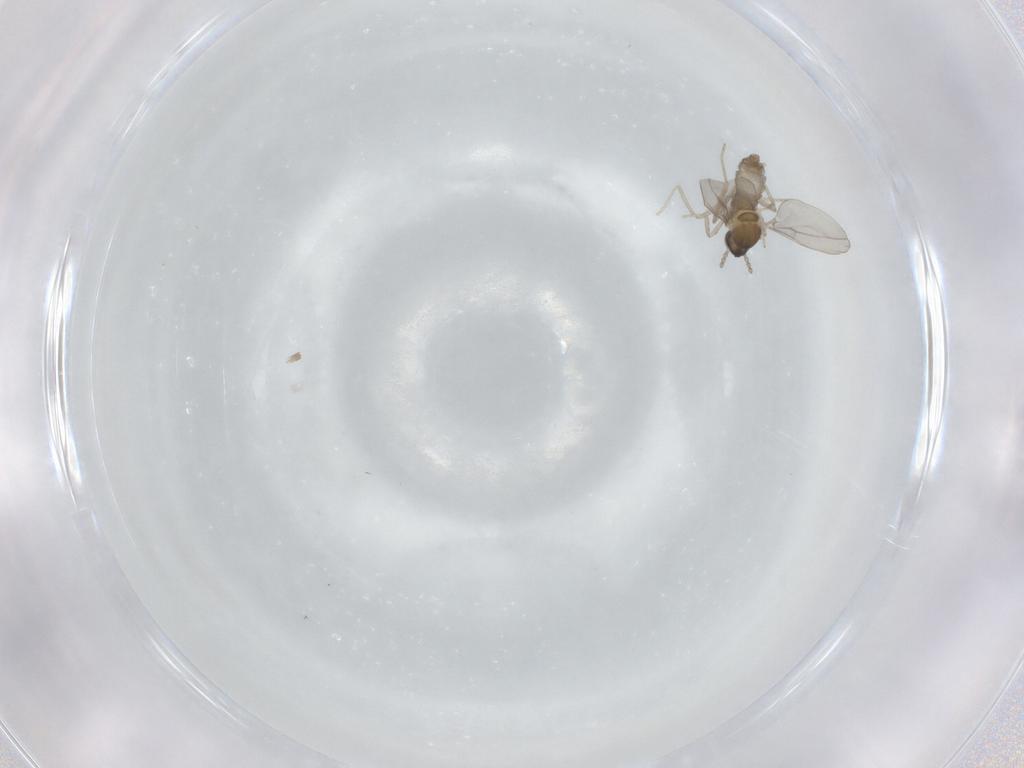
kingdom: Animalia
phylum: Arthropoda
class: Insecta
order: Diptera
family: Cecidomyiidae
